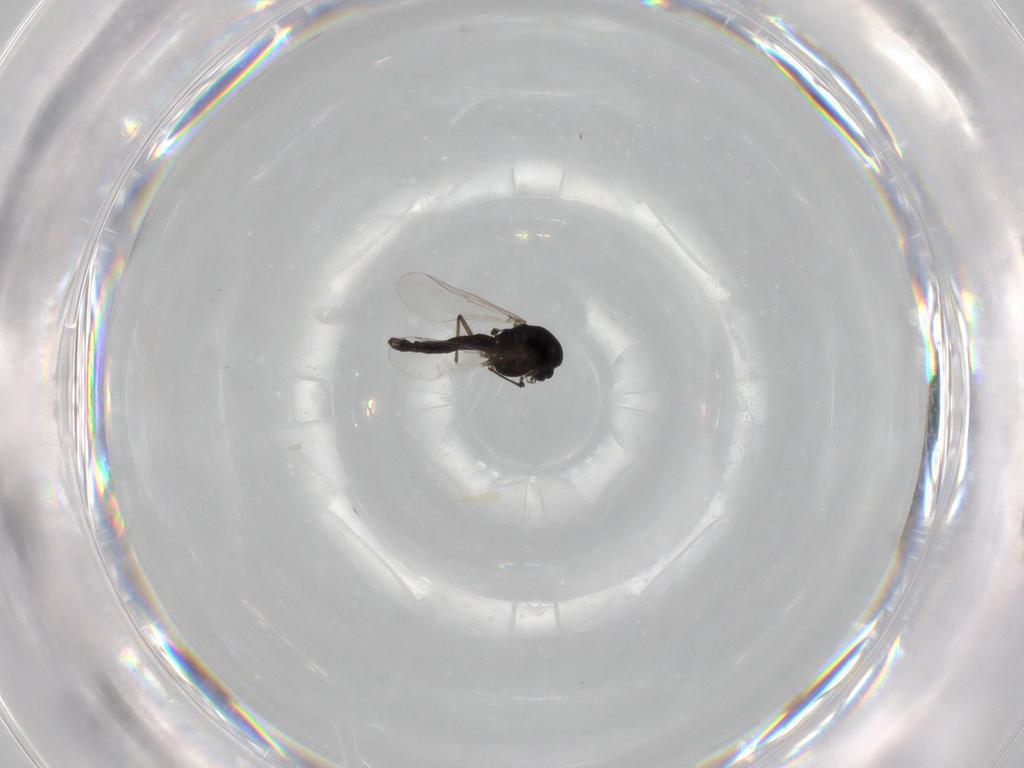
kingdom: Animalia
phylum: Arthropoda
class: Insecta
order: Diptera
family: Chironomidae
